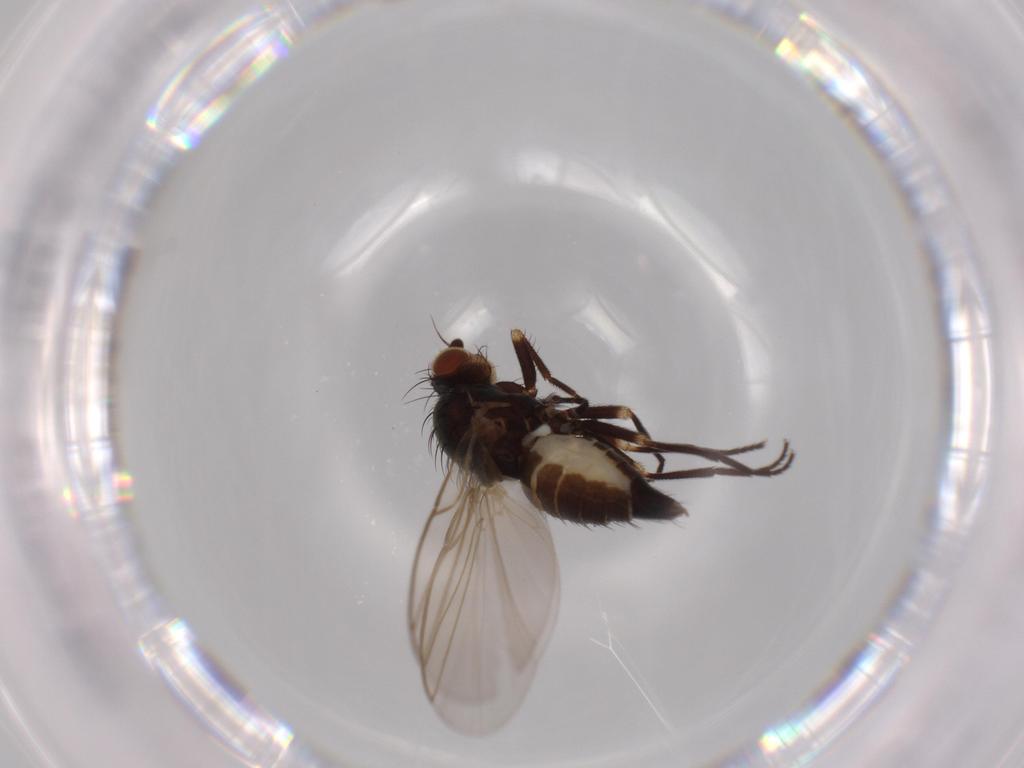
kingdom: Animalia
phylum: Arthropoda
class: Insecta
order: Diptera
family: Agromyzidae
